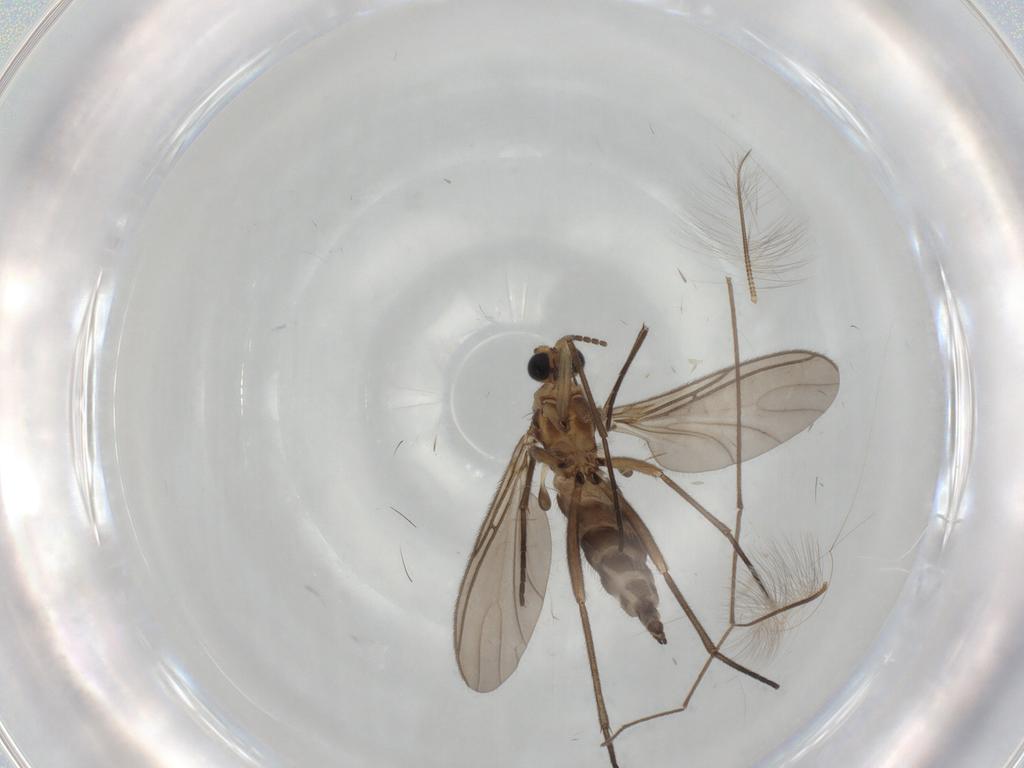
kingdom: Animalia
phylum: Arthropoda
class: Insecta
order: Diptera
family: Sciaridae
